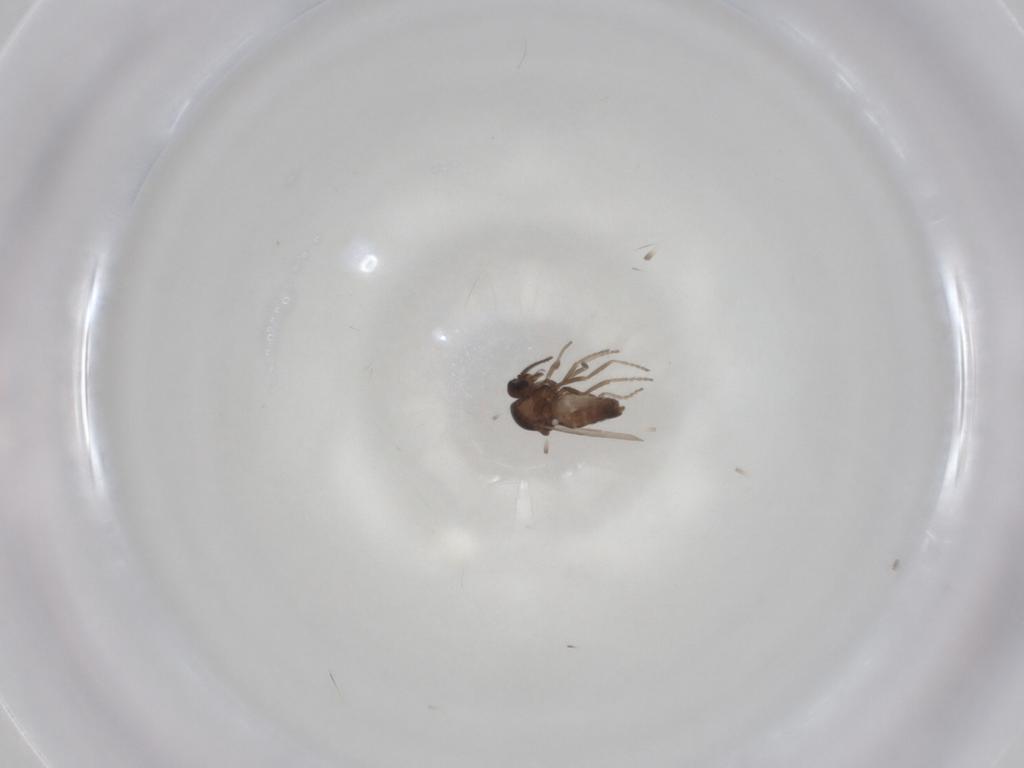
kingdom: Animalia
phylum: Arthropoda
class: Insecta
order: Diptera
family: Ceratopogonidae
